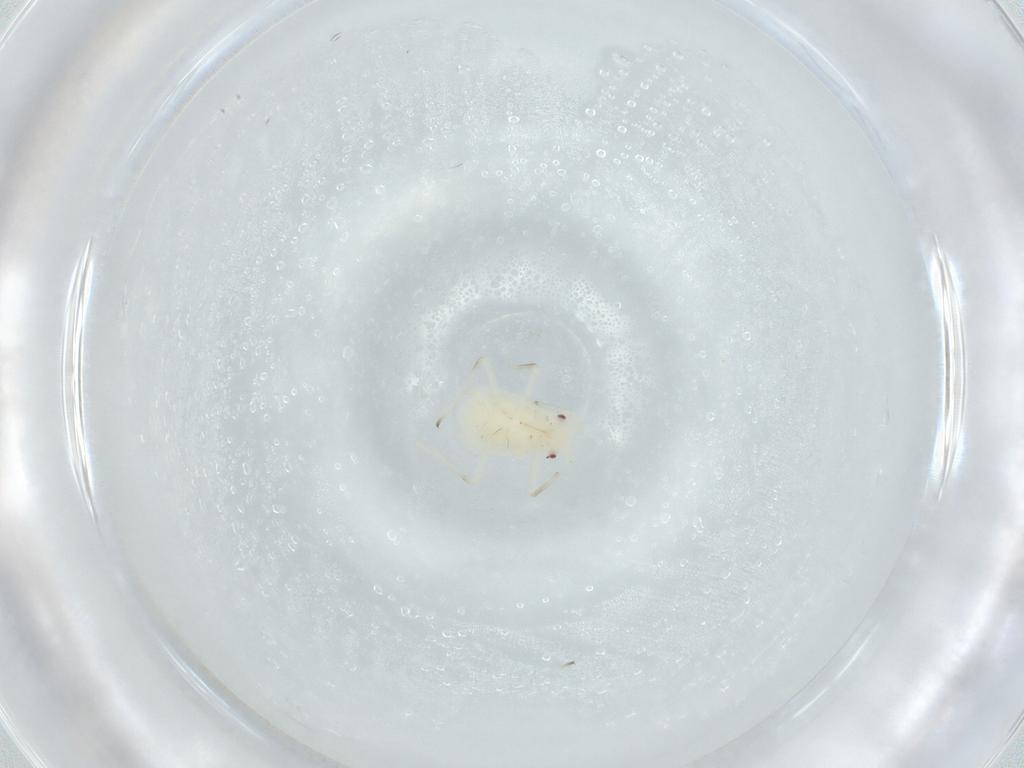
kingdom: Animalia
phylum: Arthropoda
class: Insecta
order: Hemiptera
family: Aphididae
